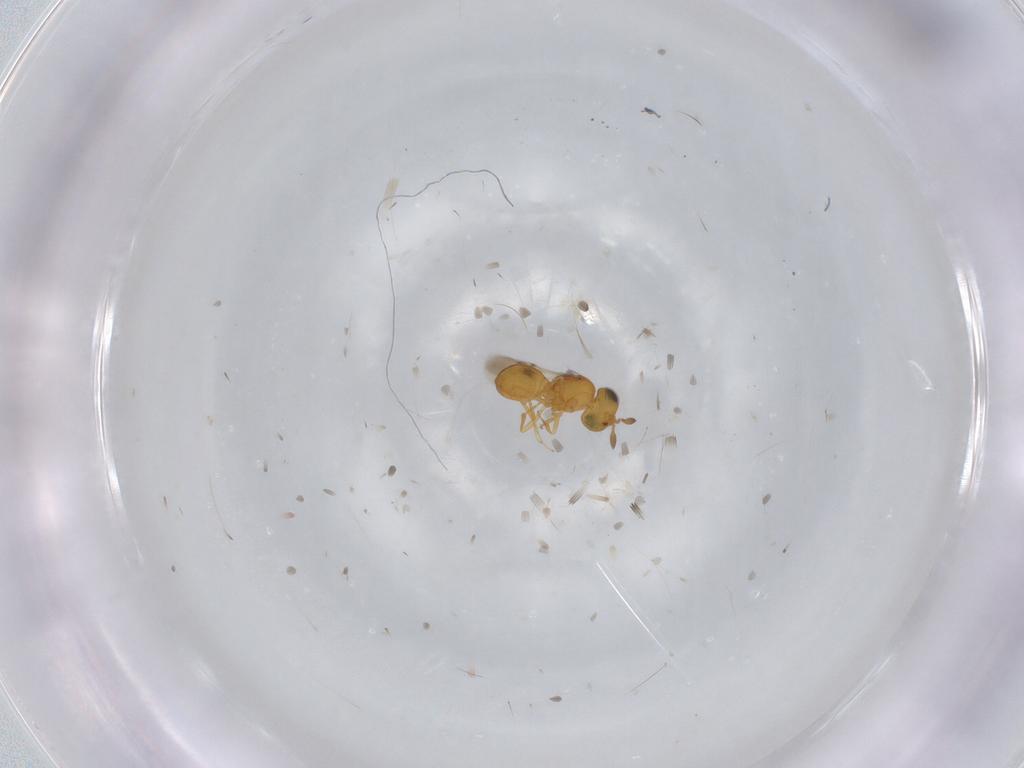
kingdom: Animalia
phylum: Arthropoda
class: Insecta
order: Hymenoptera
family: Scelionidae
